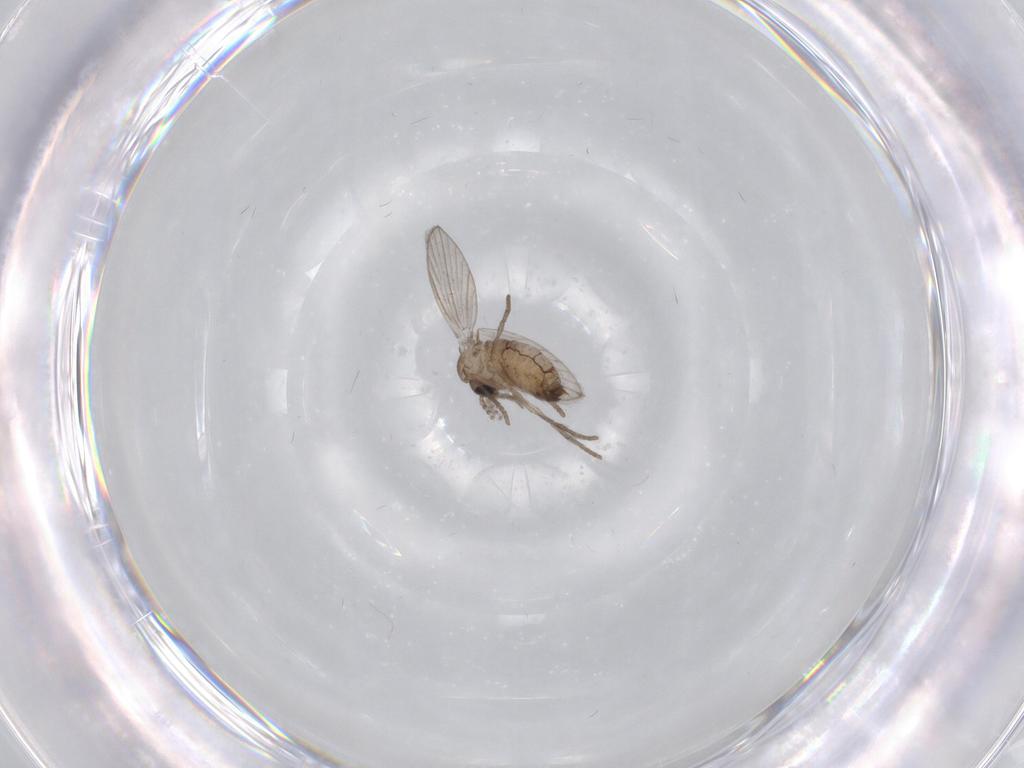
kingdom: Animalia
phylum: Arthropoda
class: Insecta
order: Diptera
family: Psychodidae
